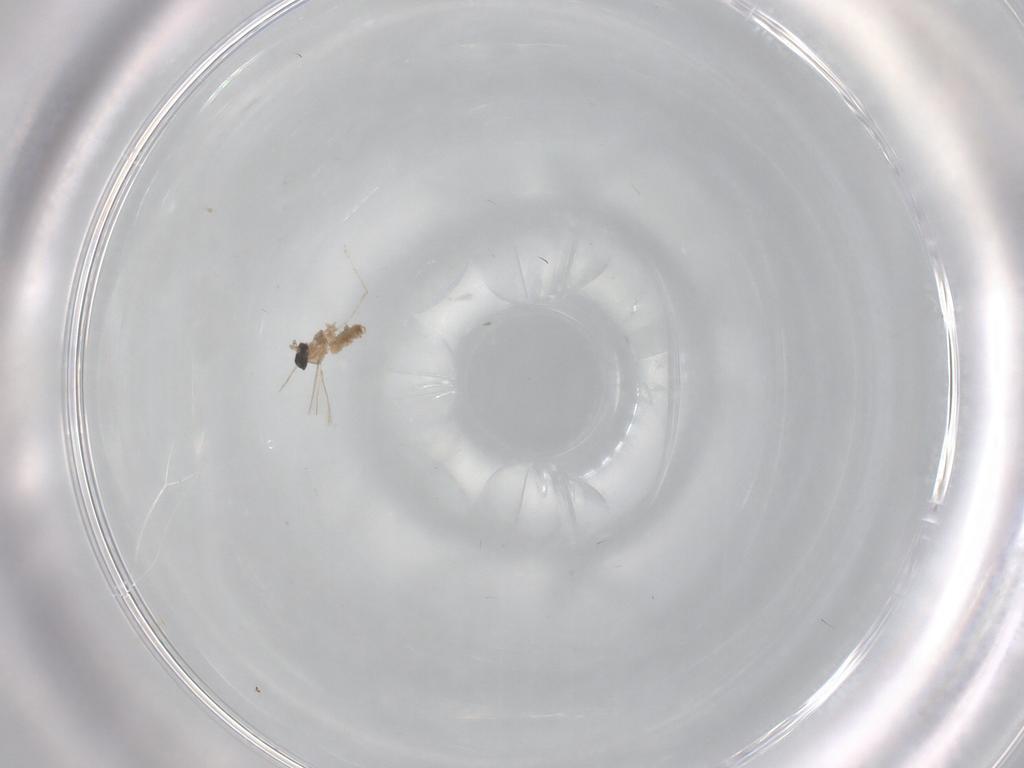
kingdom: Animalia
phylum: Arthropoda
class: Insecta
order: Diptera
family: Cecidomyiidae
